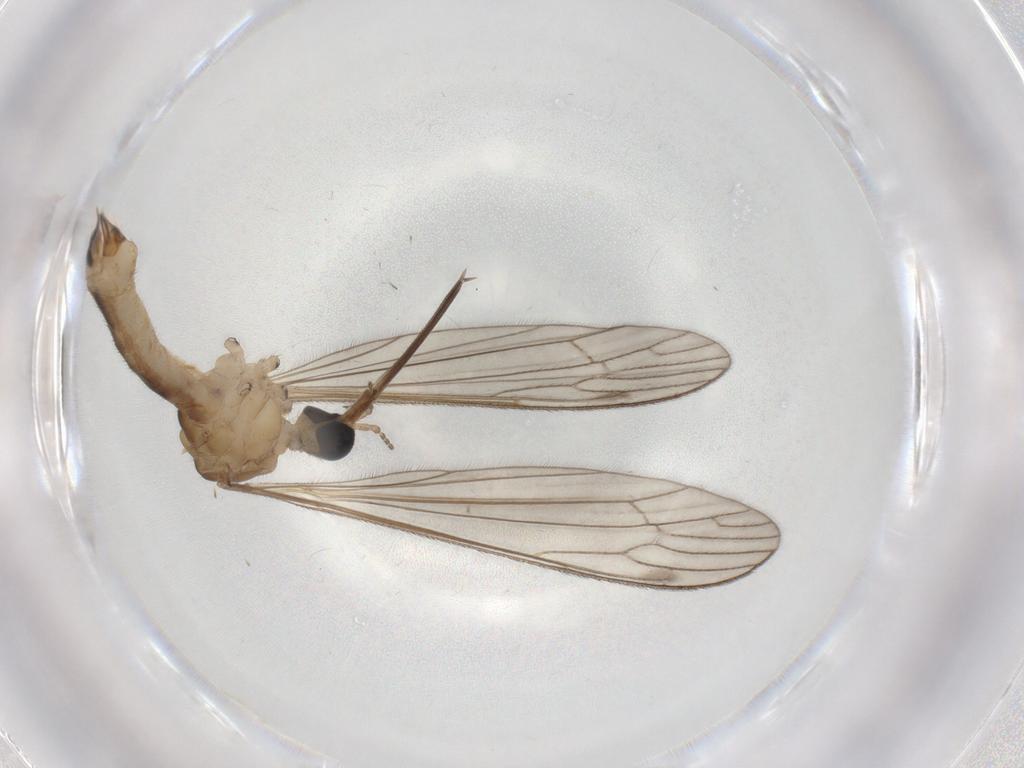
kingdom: Animalia
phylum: Arthropoda
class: Insecta
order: Diptera
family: Limoniidae
